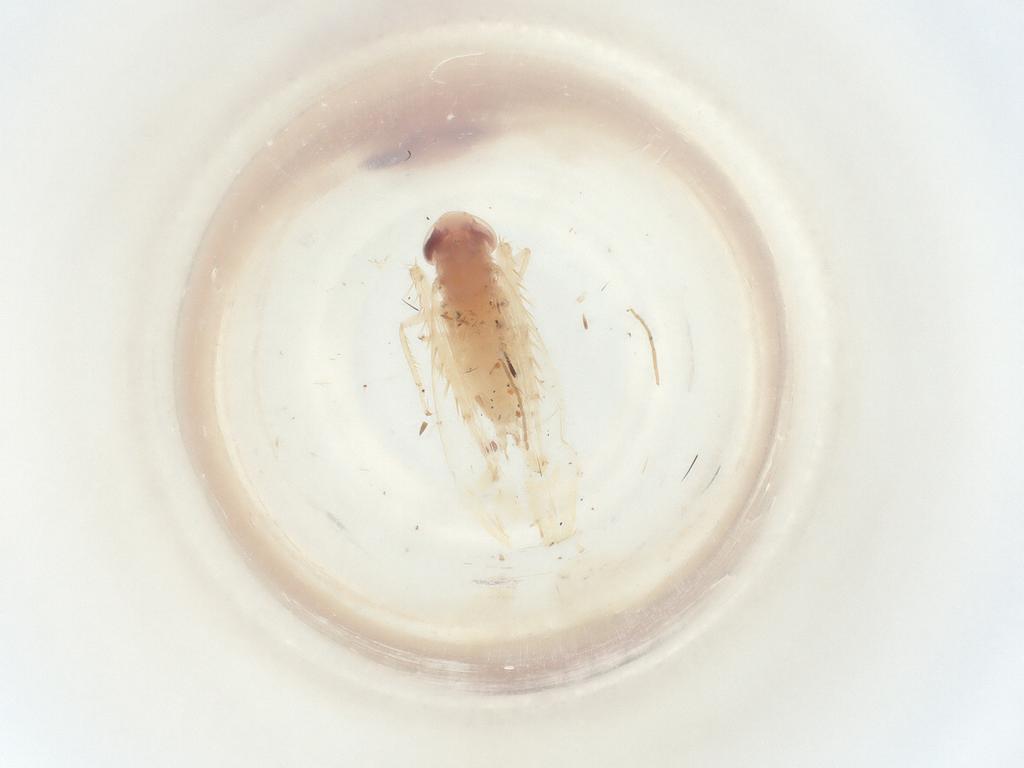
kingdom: Animalia
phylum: Arthropoda
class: Insecta
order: Hemiptera
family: Cicadellidae
